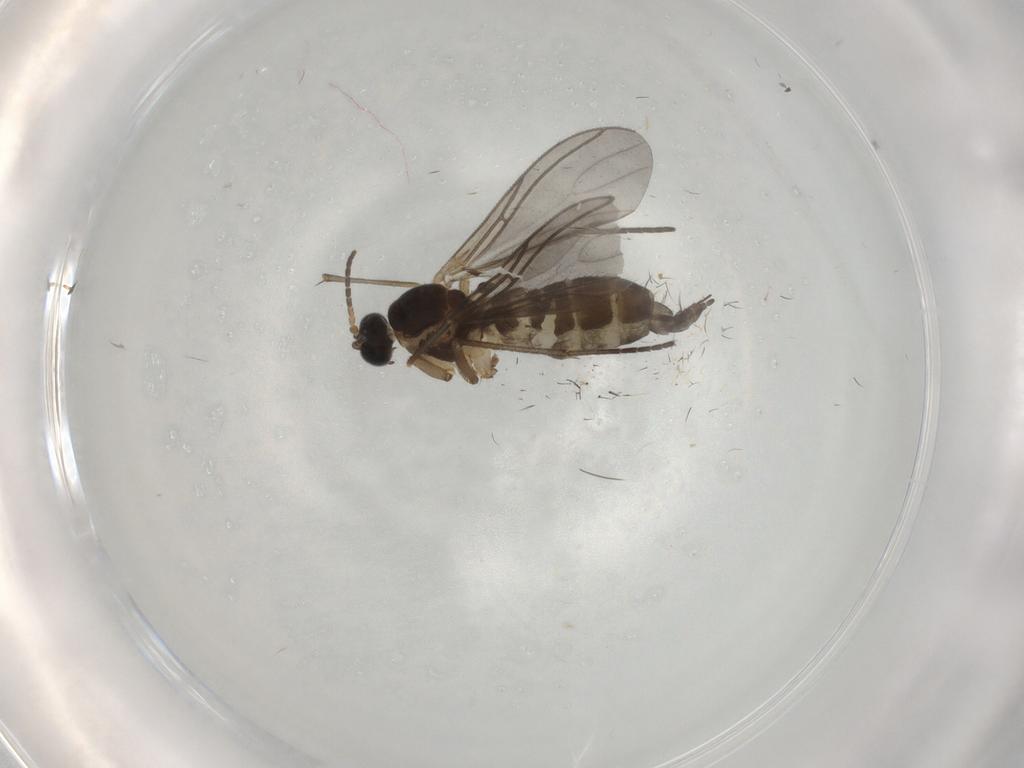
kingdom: Animalia
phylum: Arthropoda
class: Insecta
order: Diptera
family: Sciaridae
